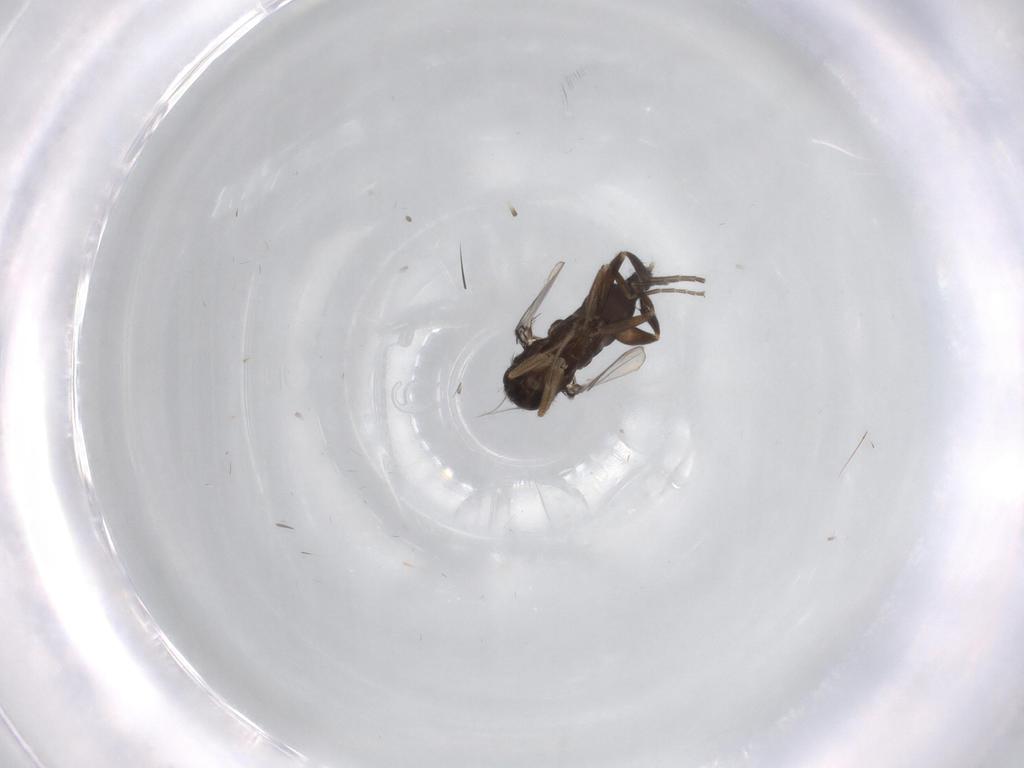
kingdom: Animalia
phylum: Arthropoda
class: Insecta
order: Diptera
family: Phoridae
